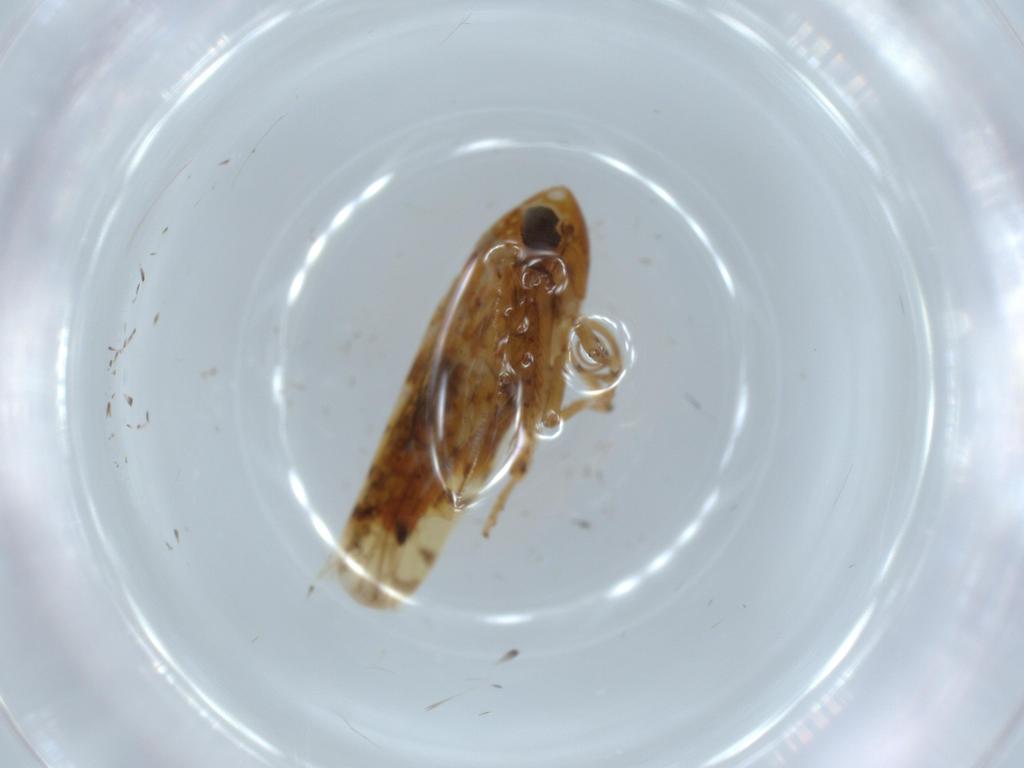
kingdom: Animalia
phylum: Arthropoda
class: Insecta
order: Hemiptera
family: Cicadellidae
